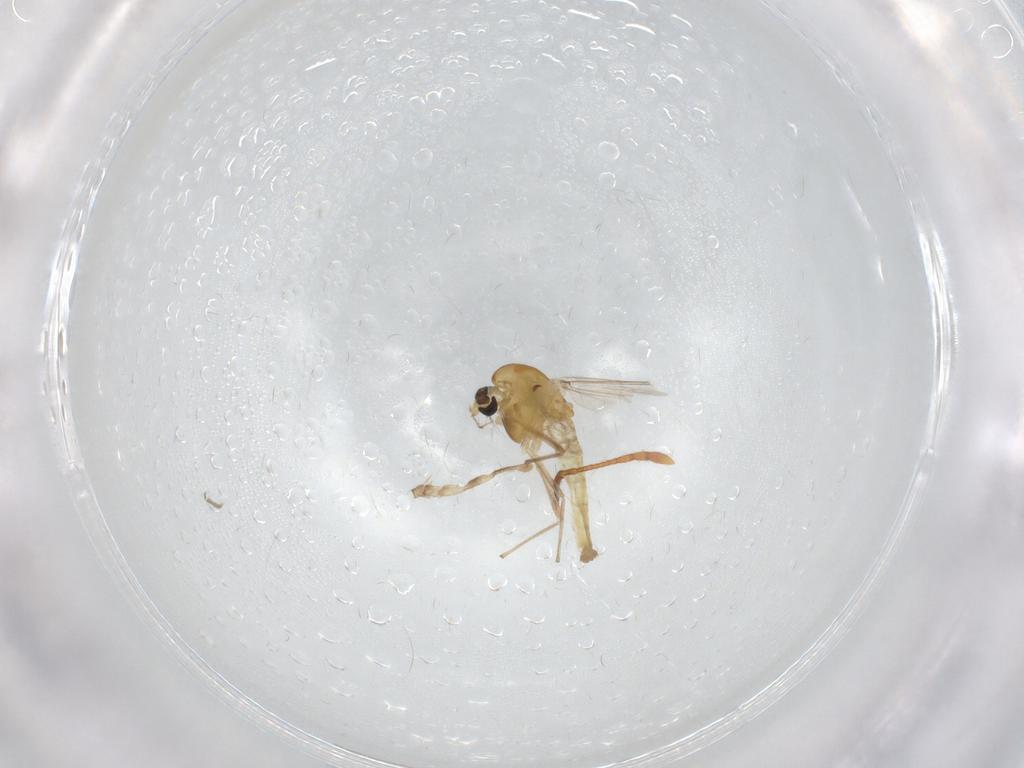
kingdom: Animalia
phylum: Arthropoda
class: Insecta
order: Diptera
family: Chironomidae
